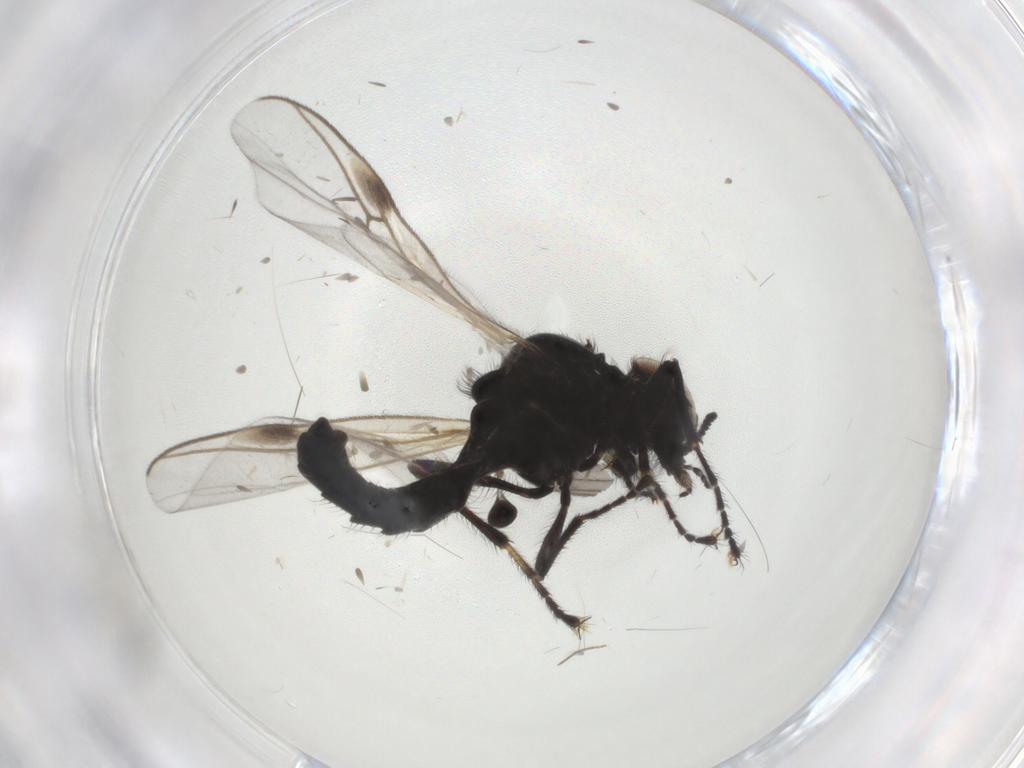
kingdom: Animalia
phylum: Arthropoda
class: Insecta
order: Diptera
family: Bibionidae
